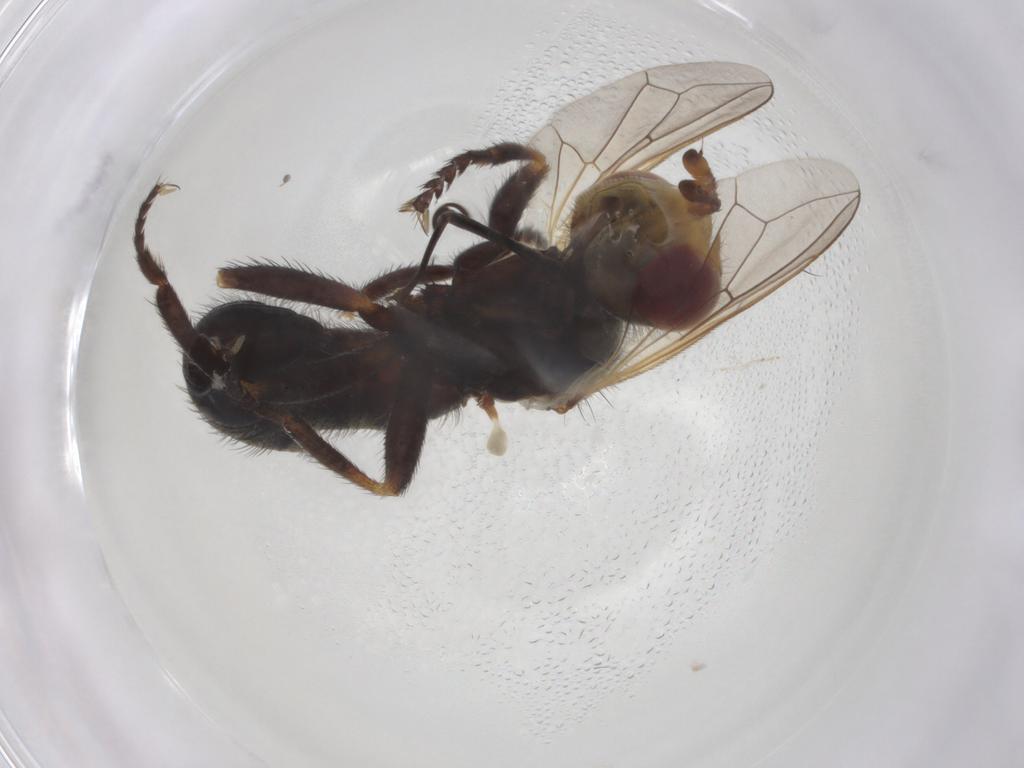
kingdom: Animalia
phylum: Arthropoda
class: Insecta
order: Diptera
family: Conopidae
